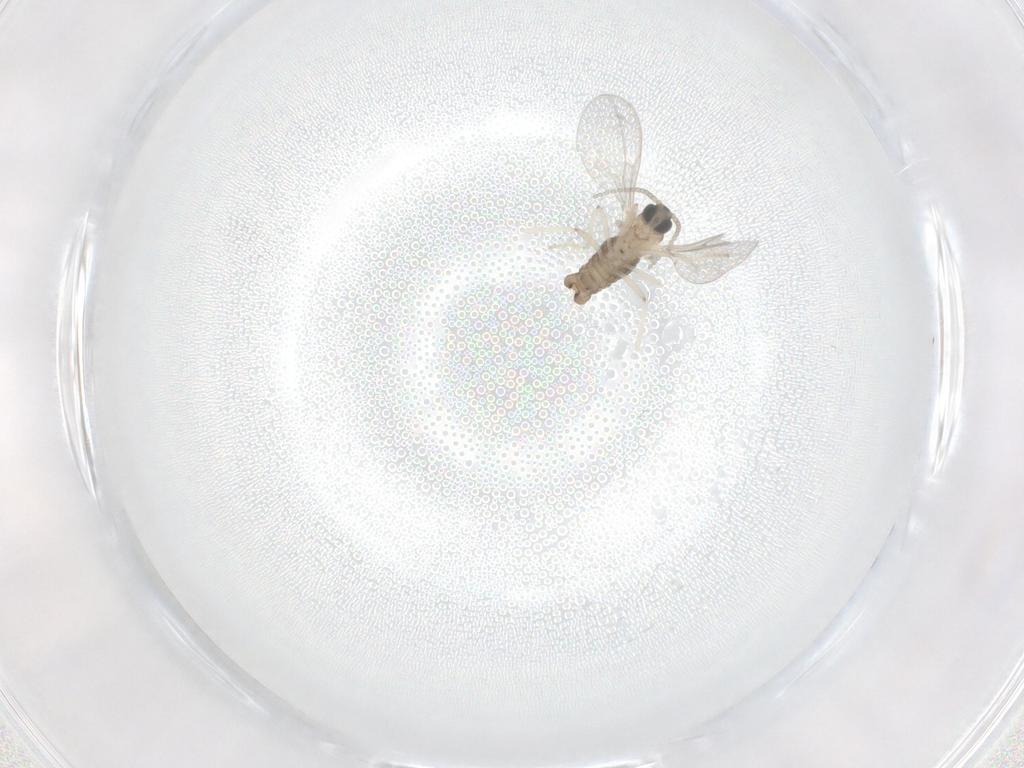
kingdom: Animalia
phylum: Arthropoda
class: Insecta
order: Diptera
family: Cecidomyiidae
